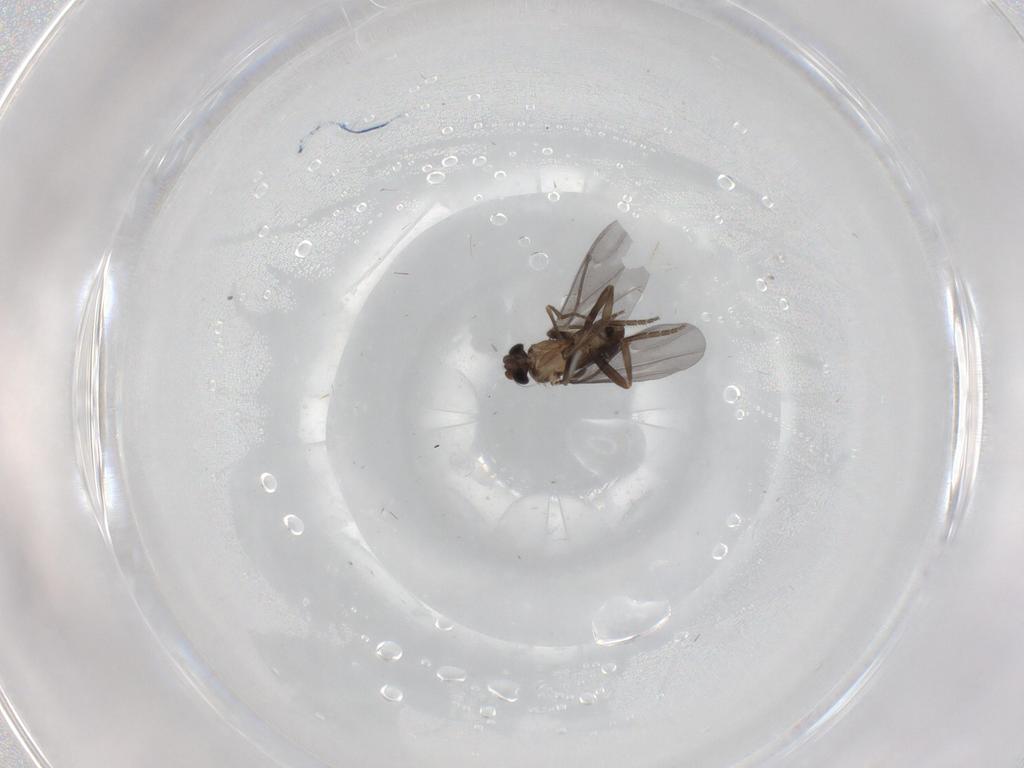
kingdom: Animalia
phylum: Arthropoda
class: Insecta
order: Diptera
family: Phoridae
